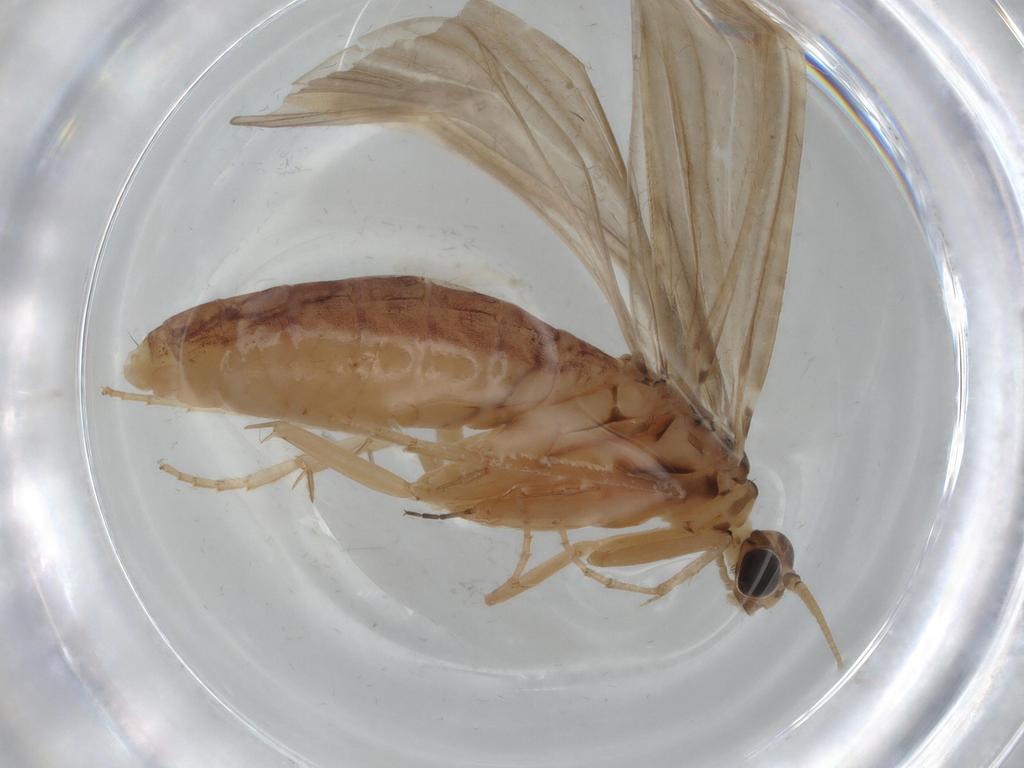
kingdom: Animalia
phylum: Arthropoda
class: Insecta
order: Trichoptera
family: Ecnomidae
